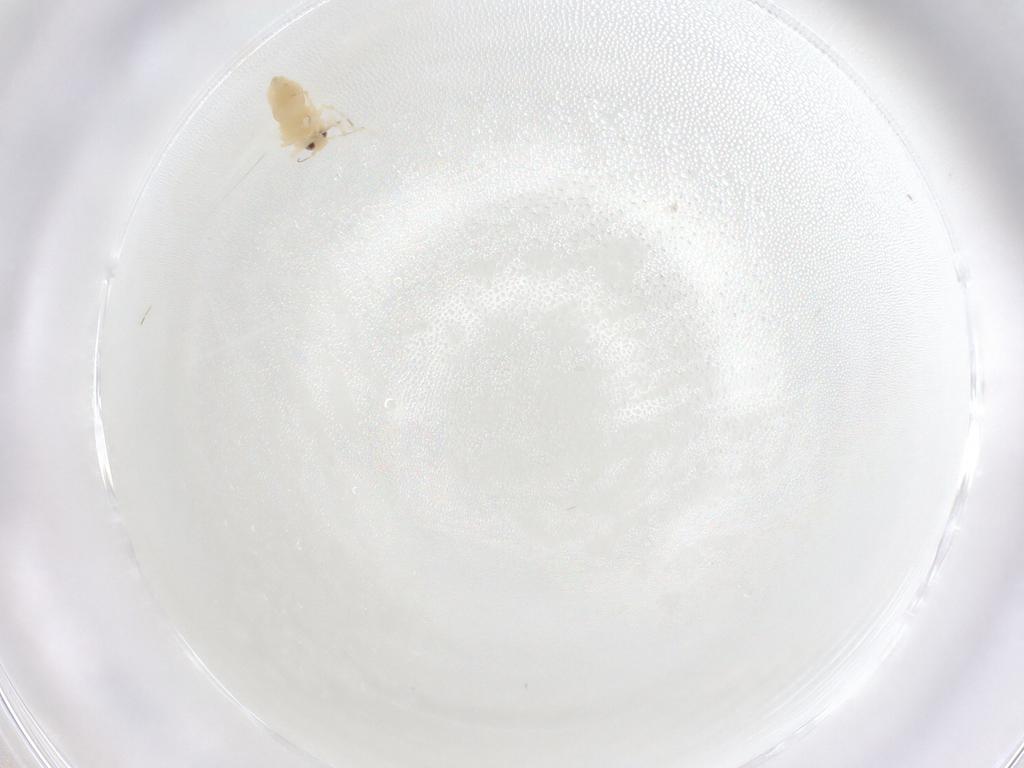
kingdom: Animalia
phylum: Arthropoda
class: Insecta
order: Hemiptera
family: Aleyrodidae
